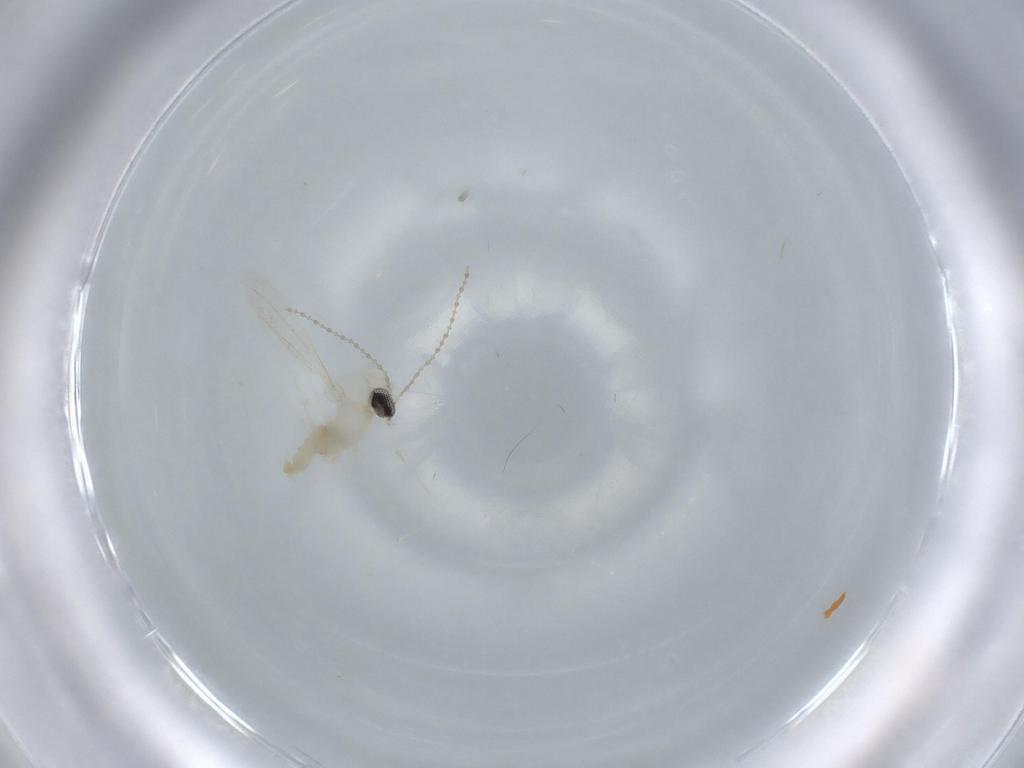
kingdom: Animalia
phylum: Arthropoda
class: Insecta
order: Diptera
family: Cecidomyiidae
